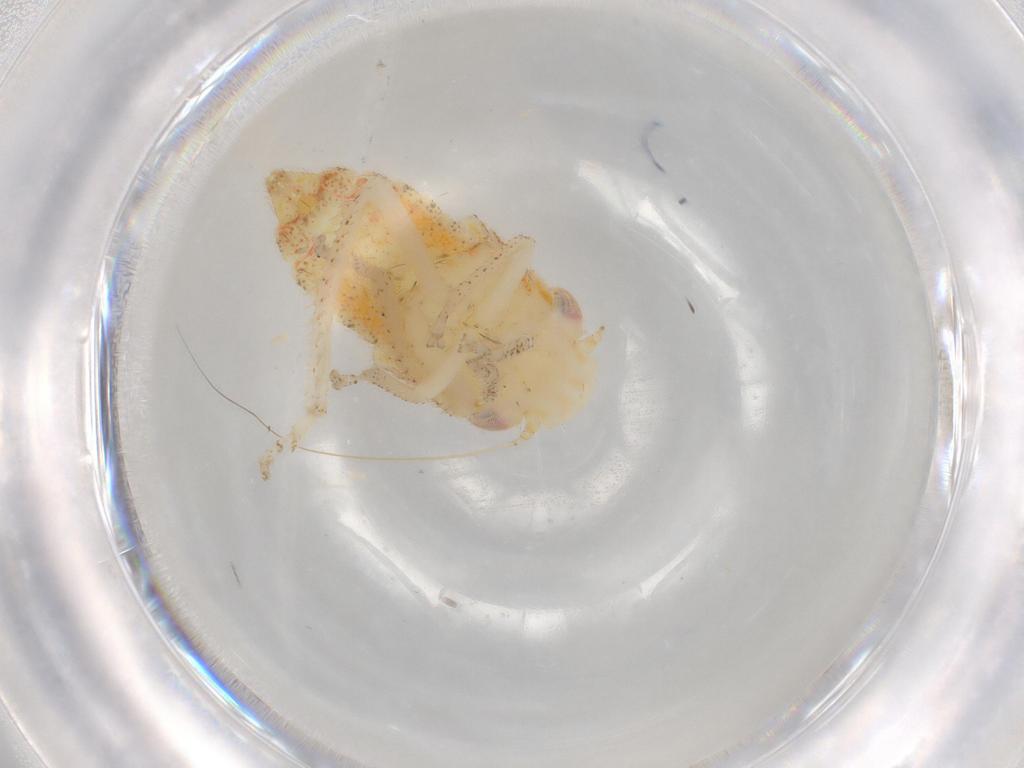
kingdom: Animalia
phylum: Arthropoda
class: Insecta
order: Hemiptera
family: Cicadellidae
